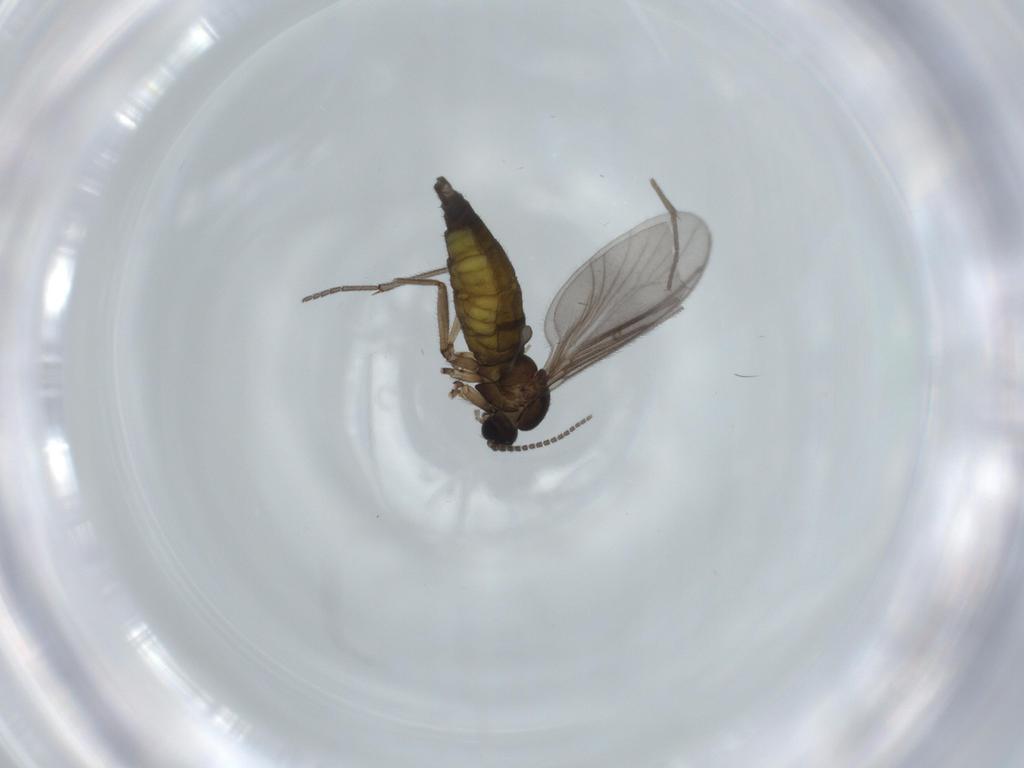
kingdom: Animalia
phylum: Arthropoda
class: Insecta
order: Diptera
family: Sciaridae
